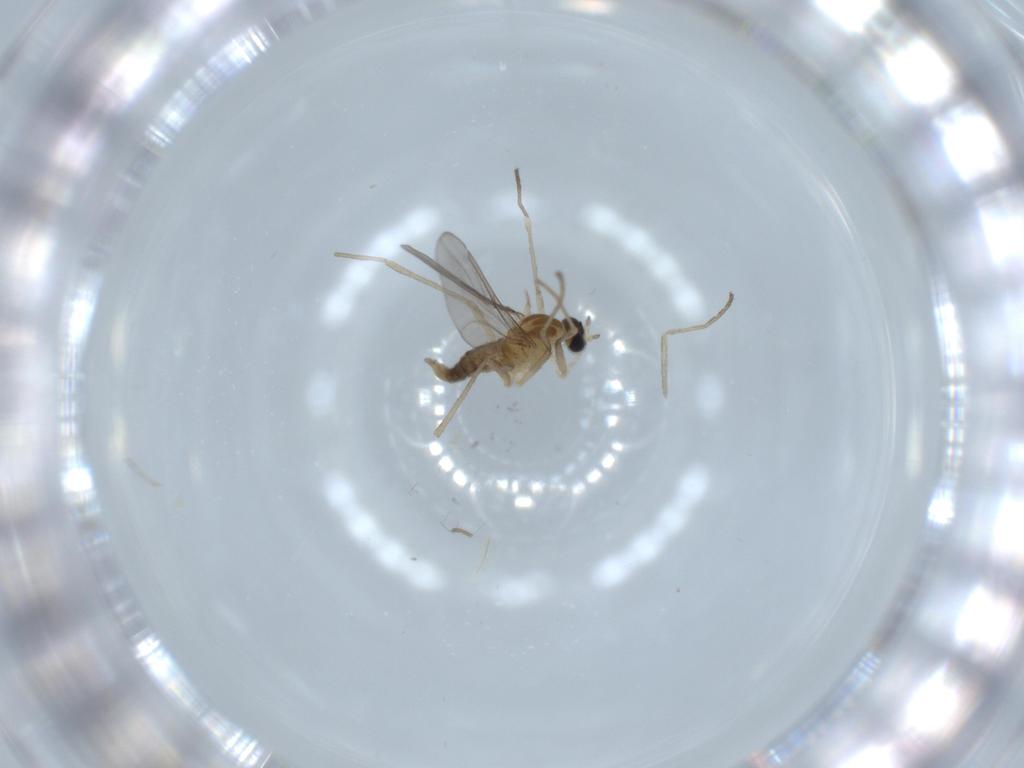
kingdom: Animalia
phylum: Arthropoda
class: Insecta
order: Diptera
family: Cecidomyiidae
